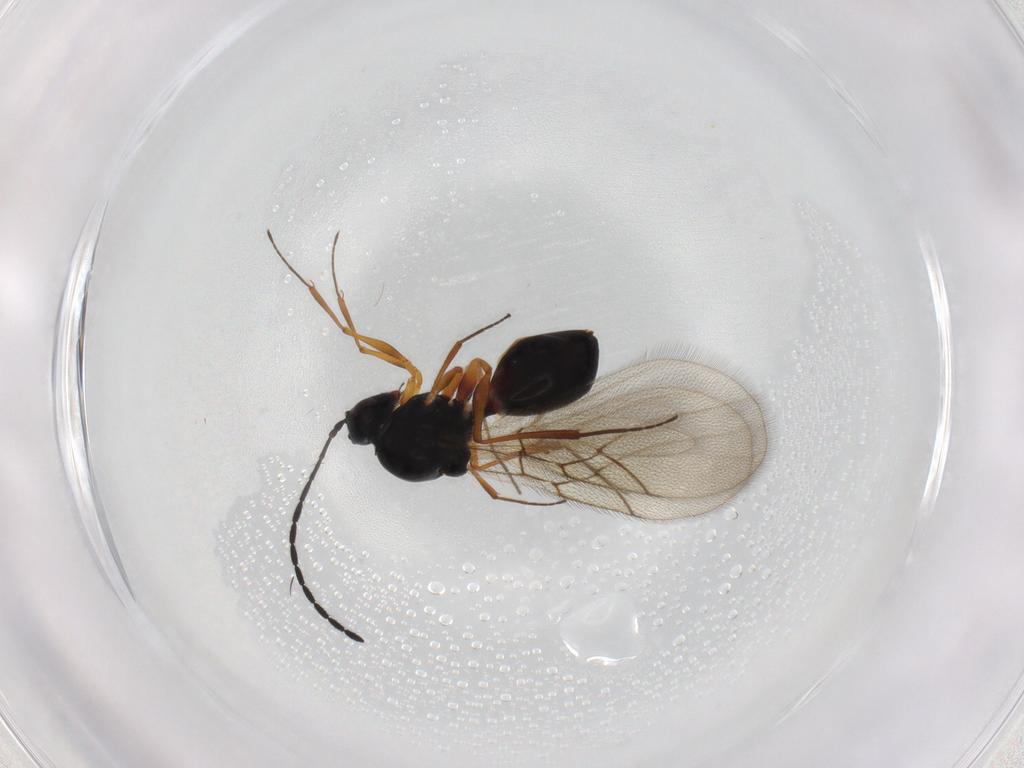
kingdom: Animalia
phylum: Arthropoda
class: Insecta
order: Hymenoptera
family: Figitidae
